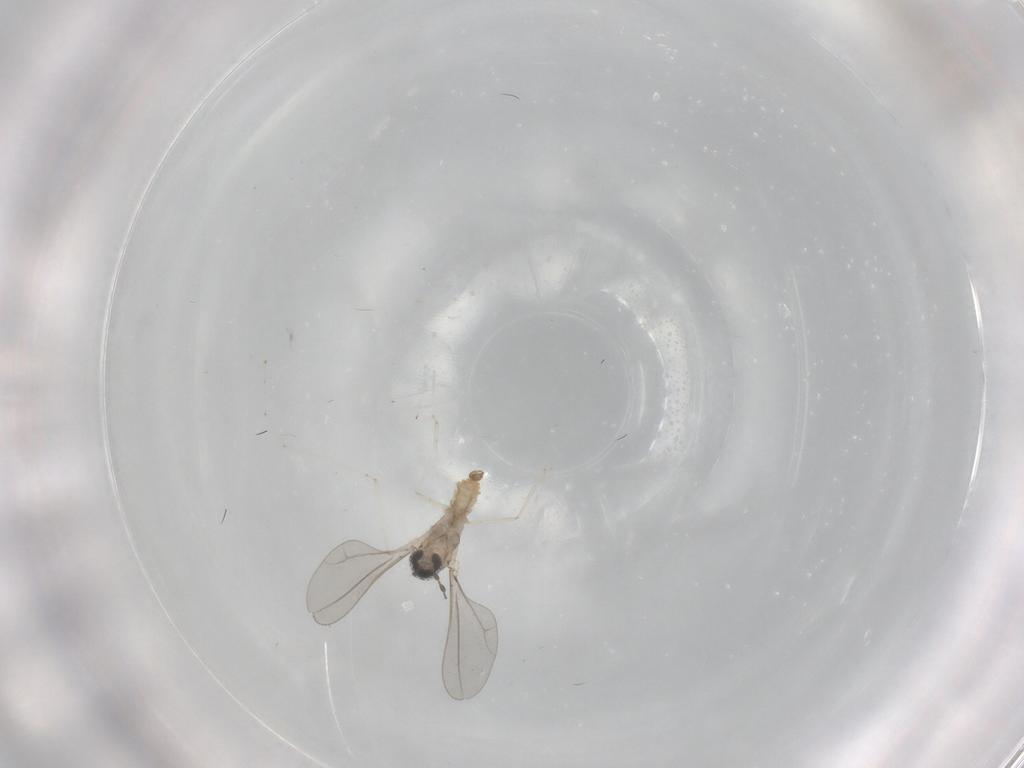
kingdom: Animalia
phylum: Arthropoda
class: Insecta
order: Diptera
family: Cecidomyiidae
